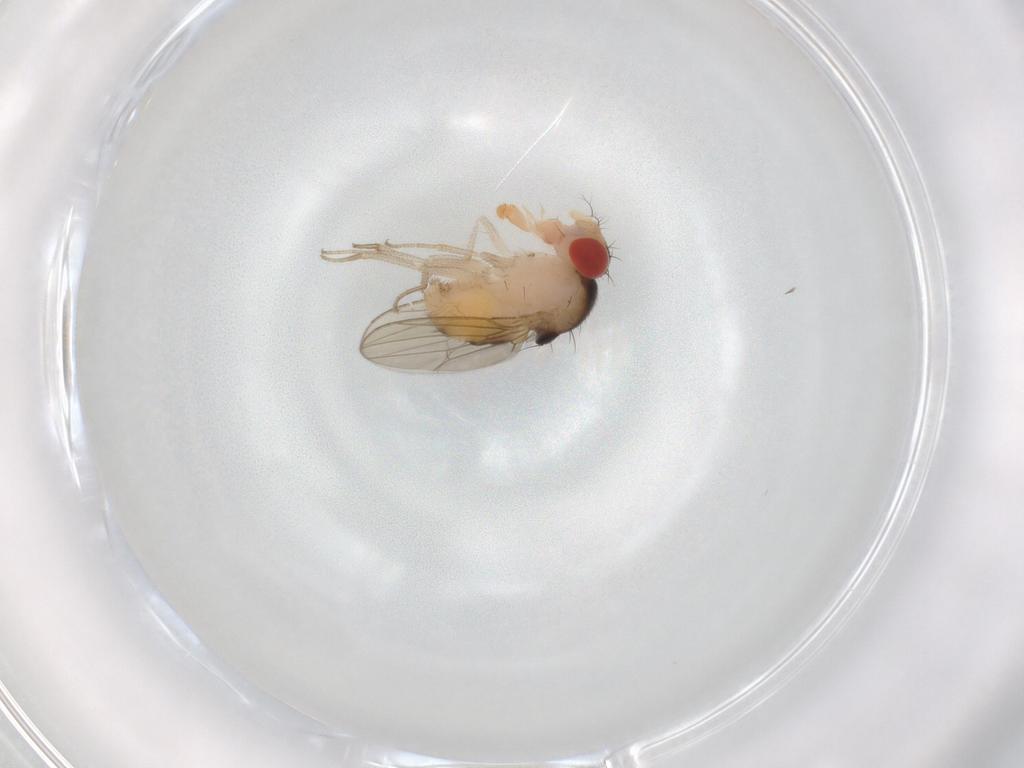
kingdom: Animalia
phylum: Arthropoda
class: Insecta
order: Diptera
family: Drosophilidae
